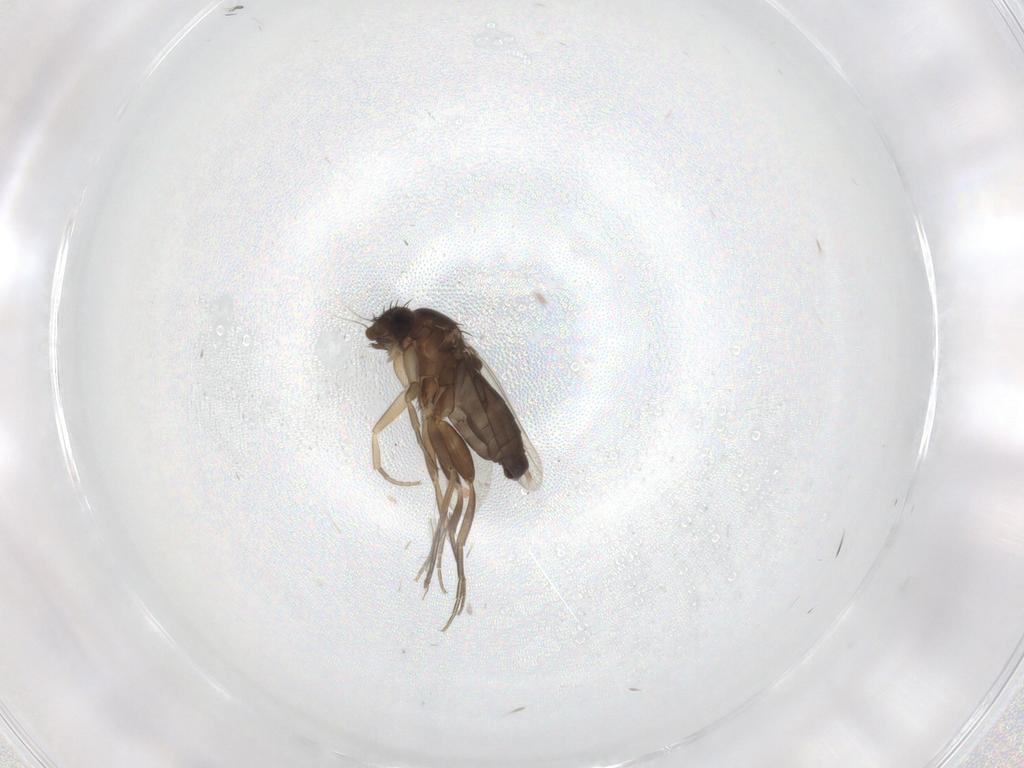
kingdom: Animalia
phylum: Arthropoda
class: Insecta
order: Diptera
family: Phoridae
